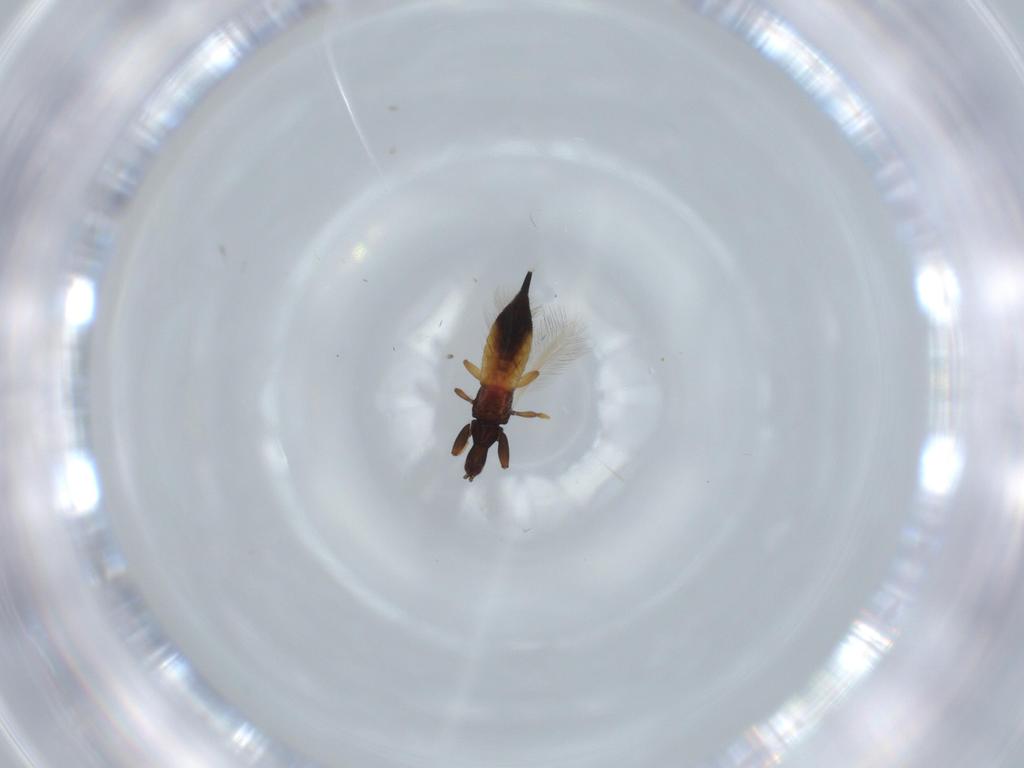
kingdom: Animalia
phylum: Arthropoda
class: Insecta
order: Thysanoptera
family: Phlaeothripidae
